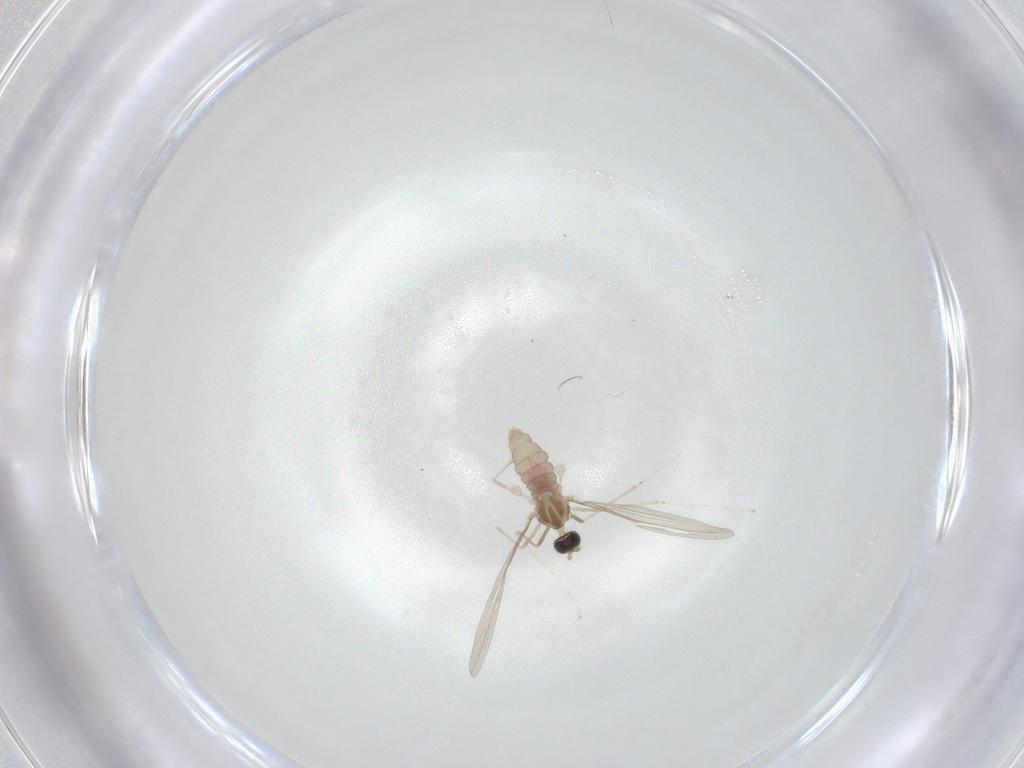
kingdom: Animalia
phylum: Arthropoda
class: Insecta
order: Diptera
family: Cecidomyiidae
